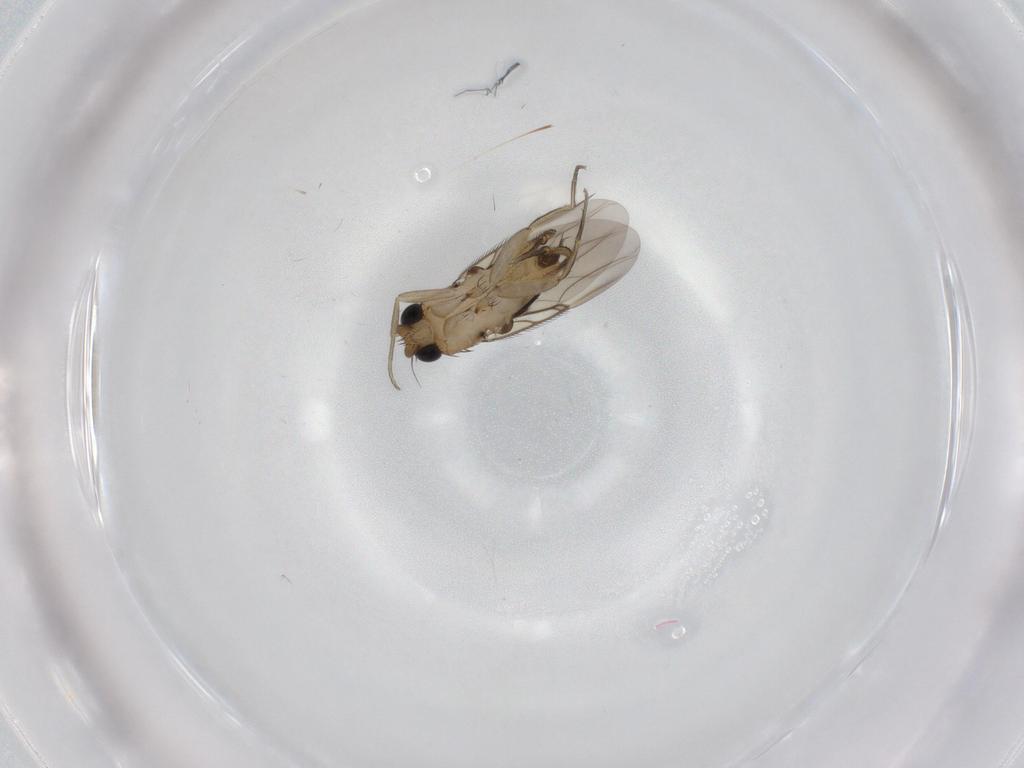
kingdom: Animalia
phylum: Arthropoda
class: Insecta
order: Diptera
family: Phoridae
